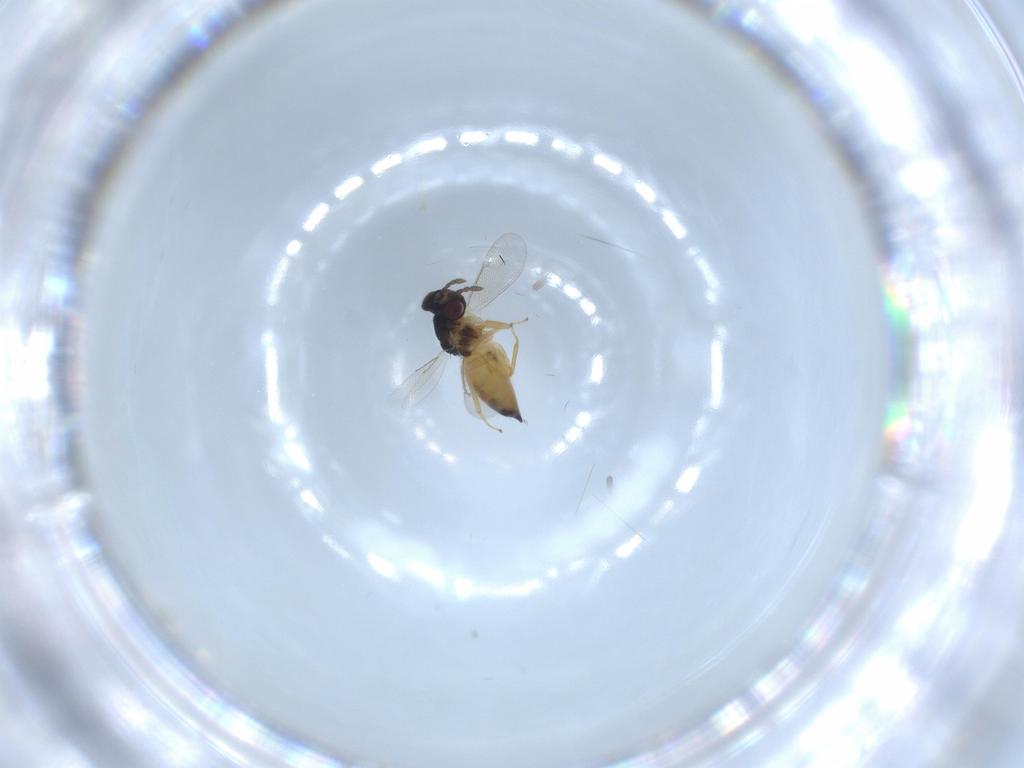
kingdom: Animalia
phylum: Arthropoda
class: Insecta
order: Hymenoptera
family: Eulophidae
